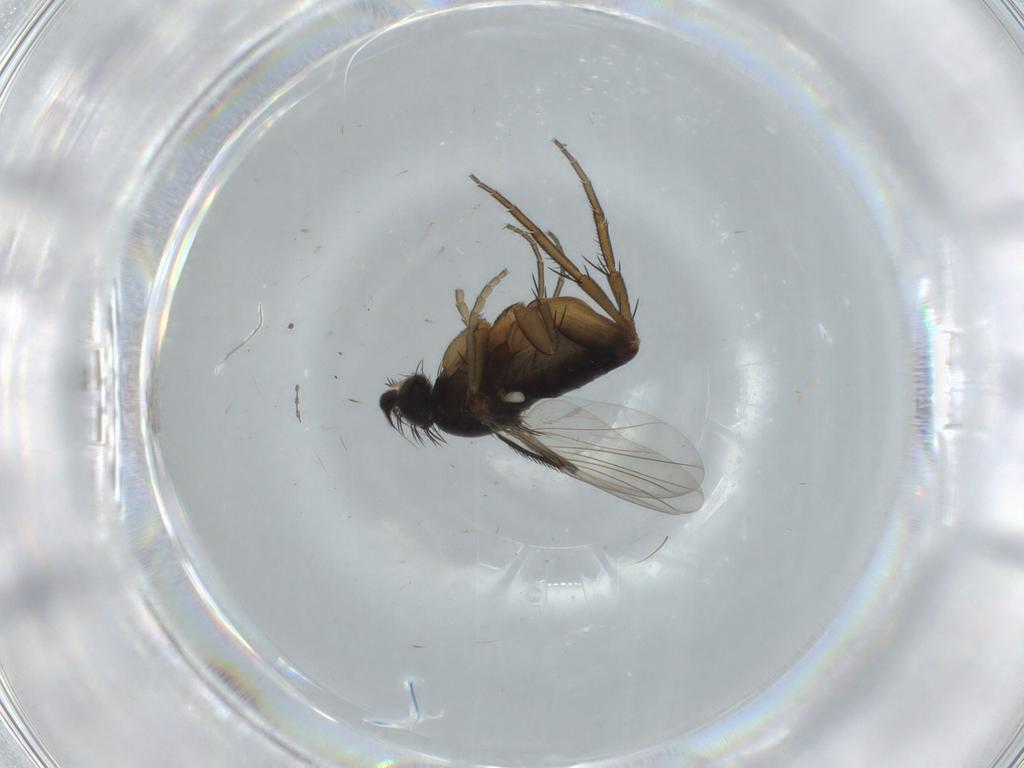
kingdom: Animalia
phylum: Arthropoda
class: Insecta
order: Diptera
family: Phoridae
